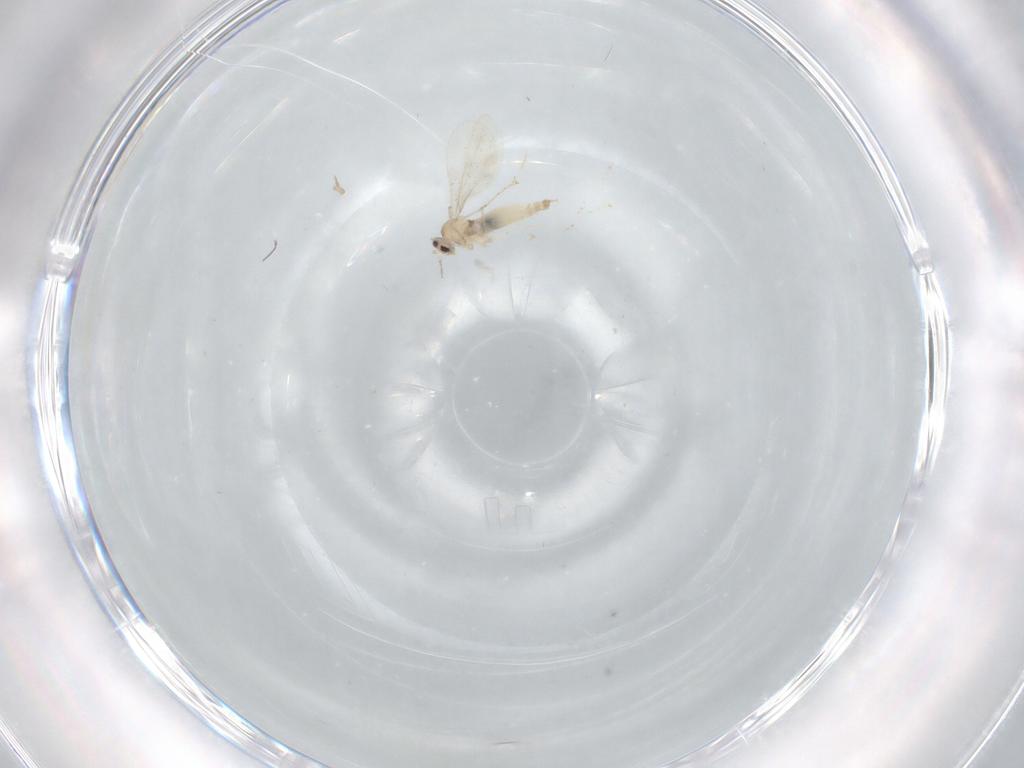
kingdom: Animalia
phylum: Arthropoda
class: Insecta
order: Diptera
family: Cecidomyiidae
